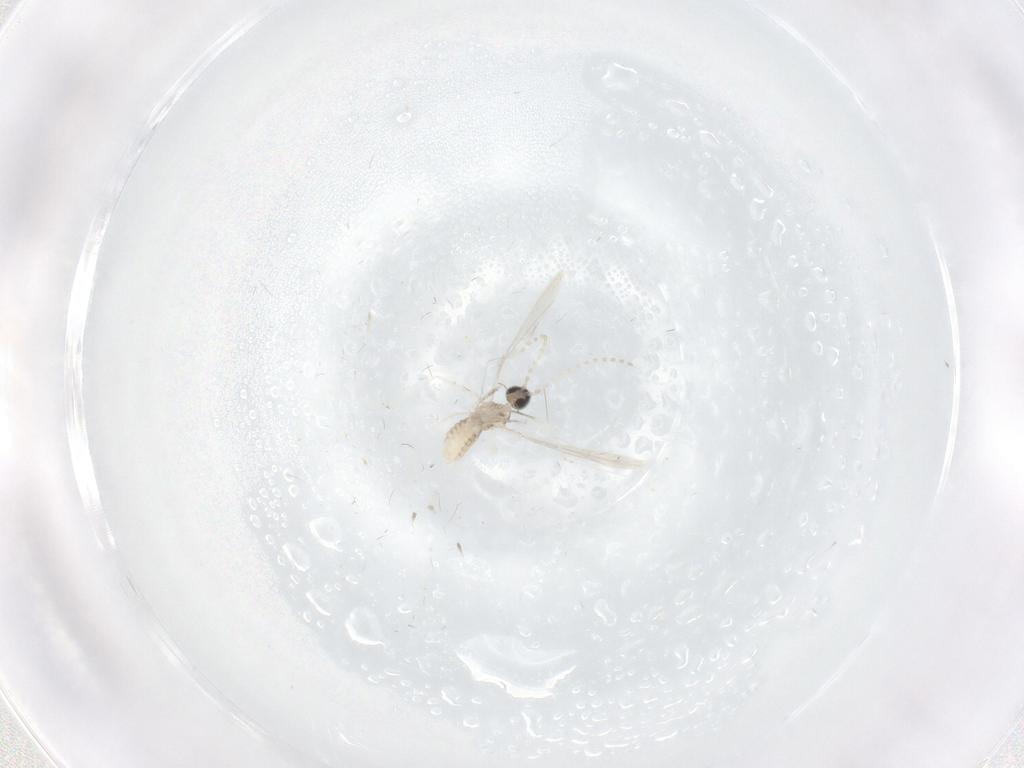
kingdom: Animalia
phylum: Arthropoda
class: Insecta
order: Diptera
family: Cecidomyiidae
